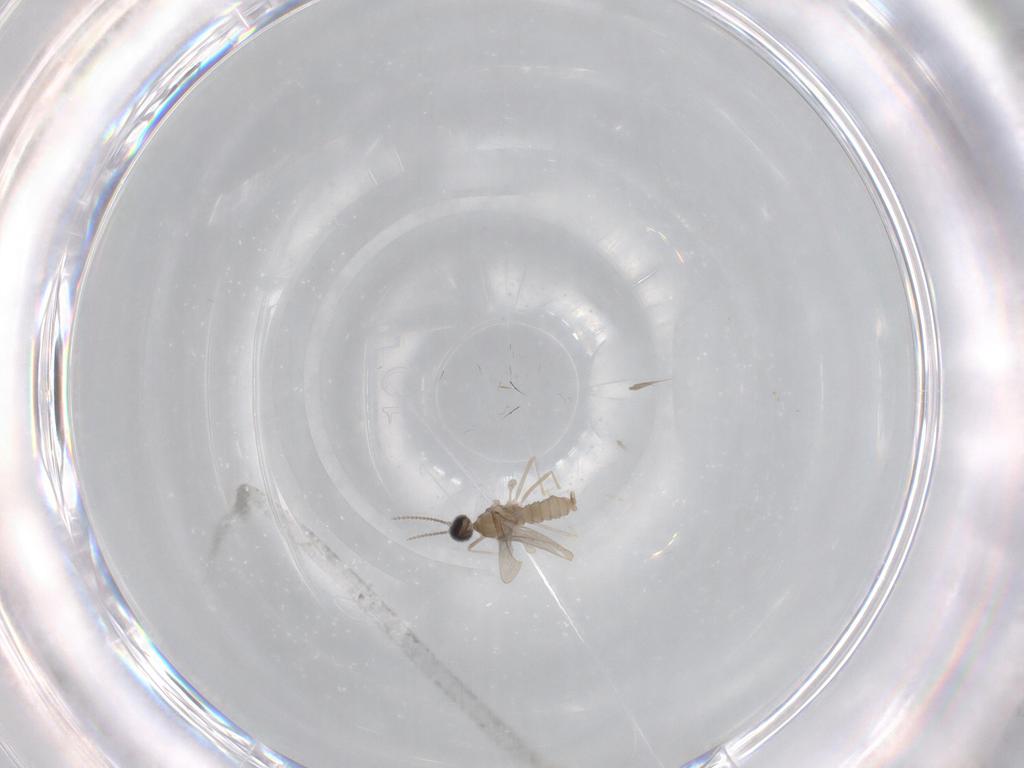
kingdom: Animalia
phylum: Arthropoda
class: Insecta
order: Diptera
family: Cecidomyiidae
